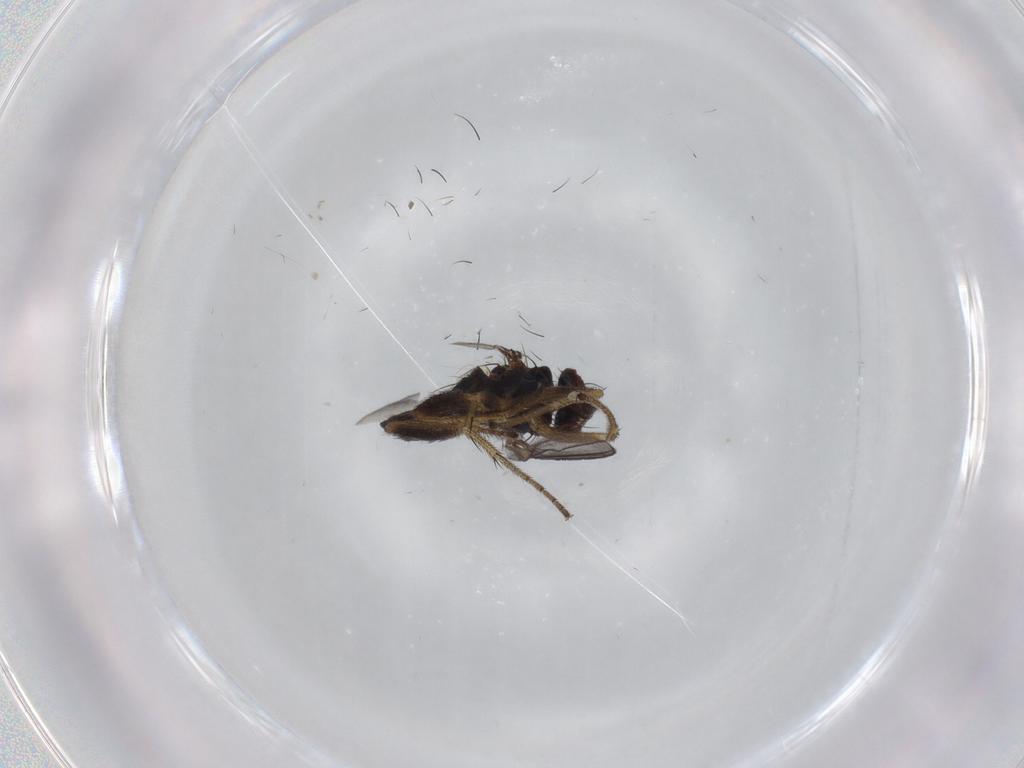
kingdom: Animalia
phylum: Arthropoda
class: Insecta
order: Diptera
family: Dolichopodidae
